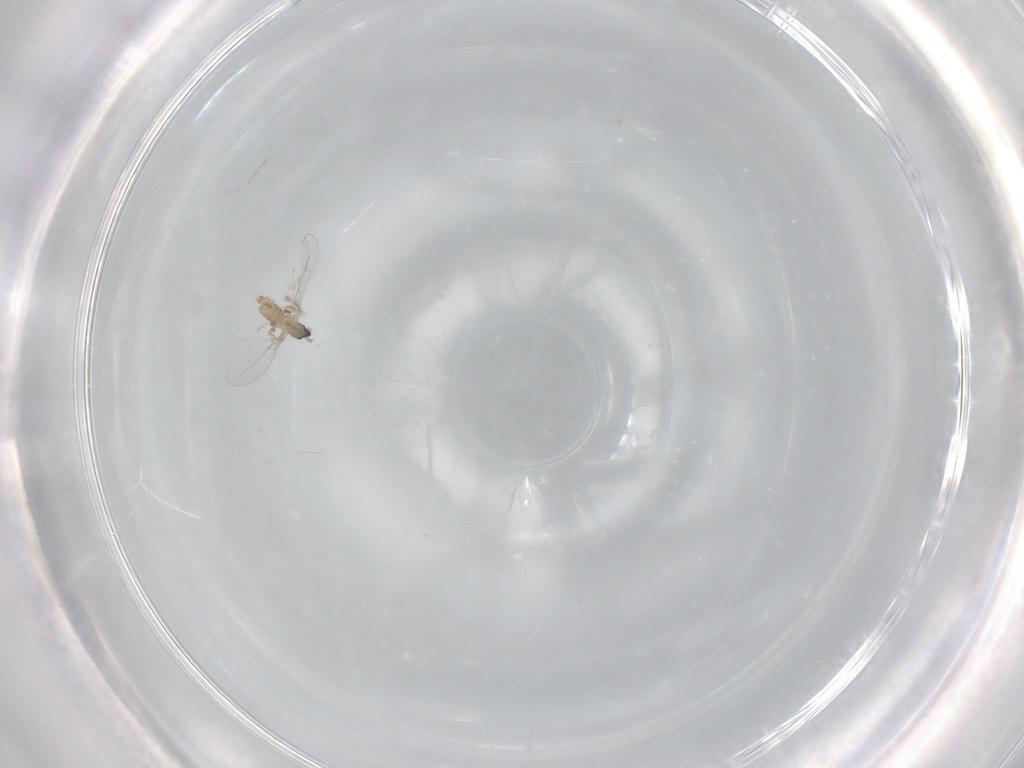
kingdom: Animalia
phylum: Arthropoda
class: Insecta
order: Diptera
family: Cecidomyiidae
